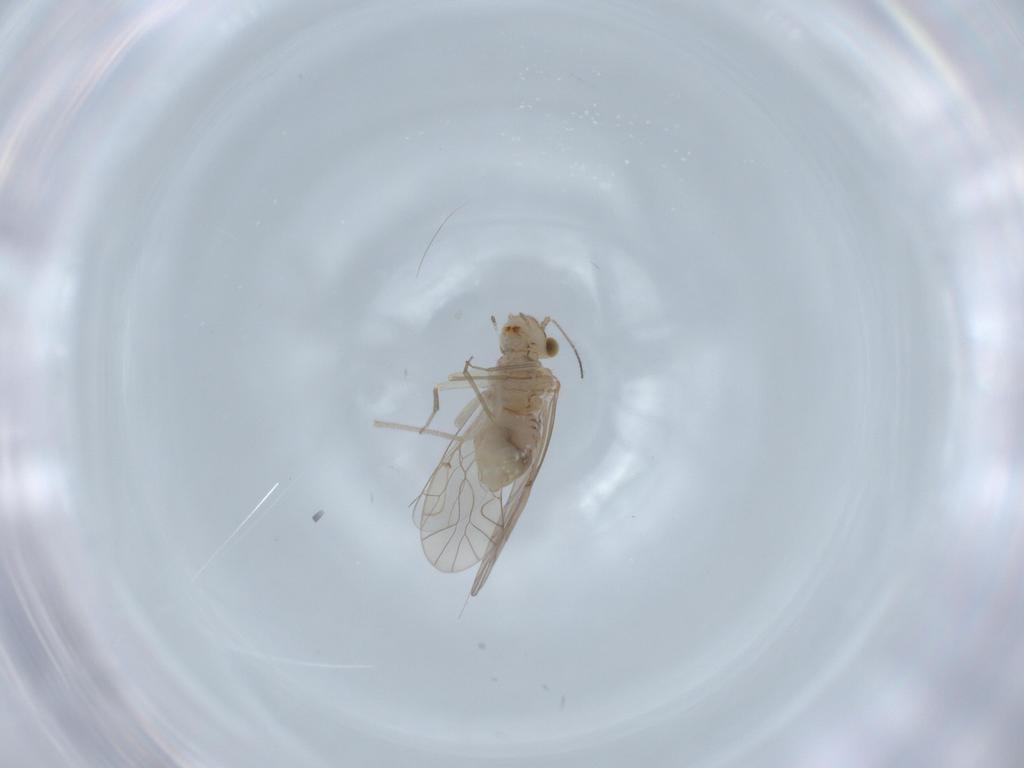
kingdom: Animalia
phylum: Arthropoda
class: Insecta
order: Psocodea
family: Lachesillidae
